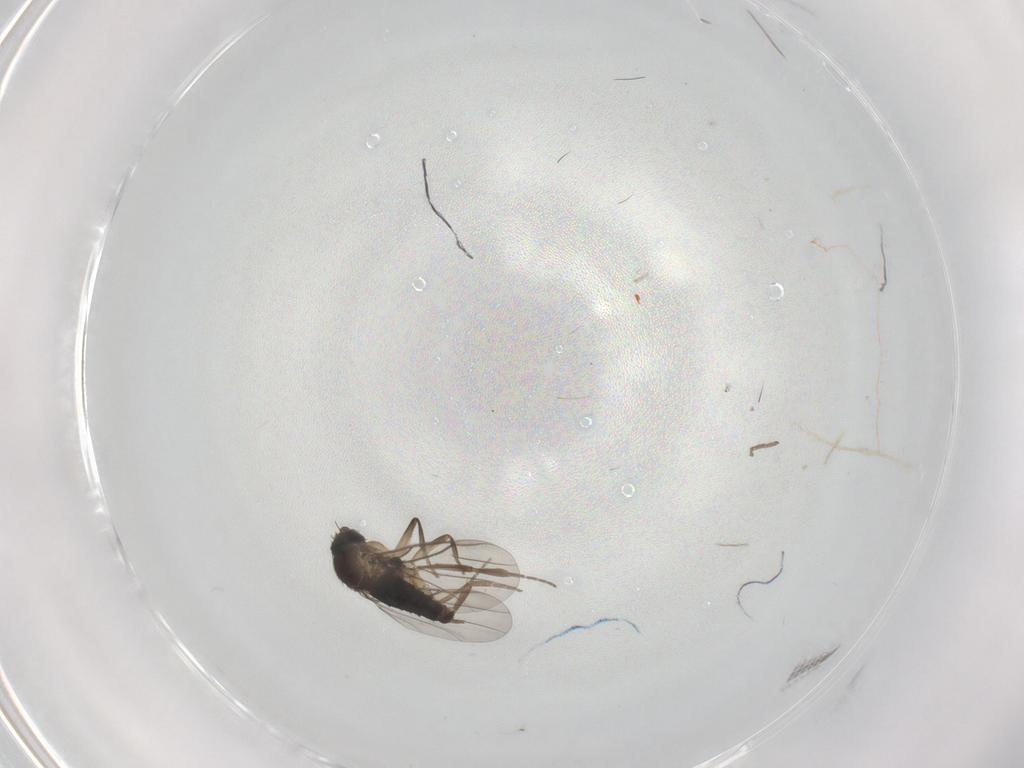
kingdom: Animalia
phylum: Arthropoda
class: Insecta
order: Diptera
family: Phoridae
